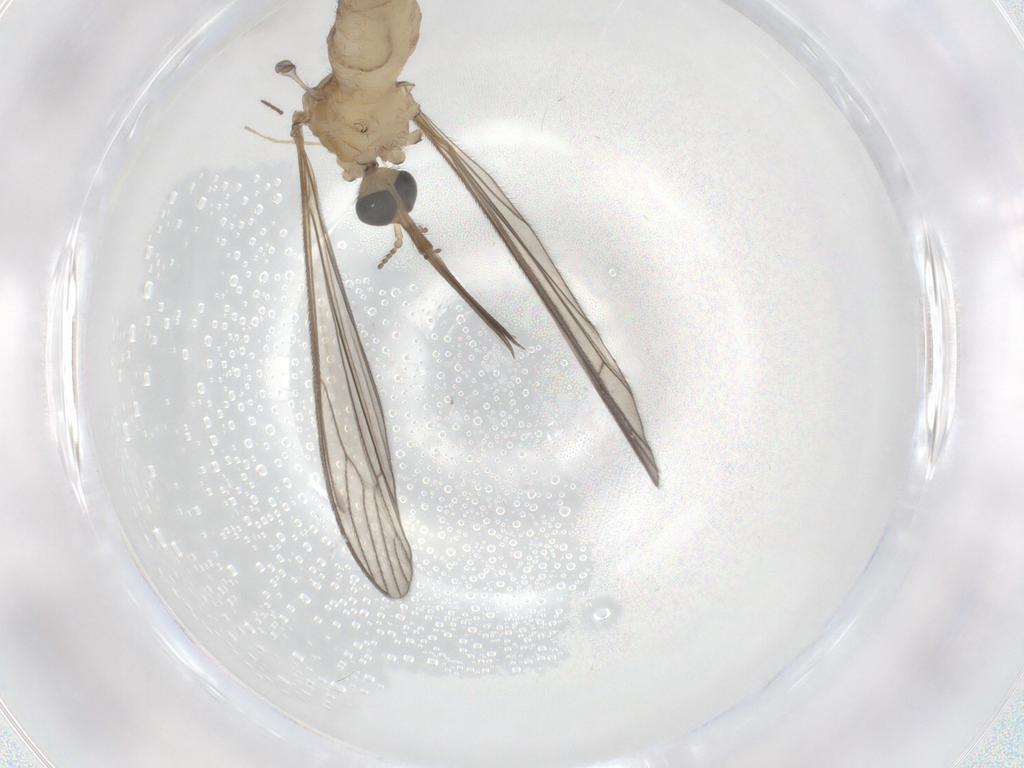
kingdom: Animalia
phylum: Arthropoda
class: Insecta
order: Diptera
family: Limoniidae
